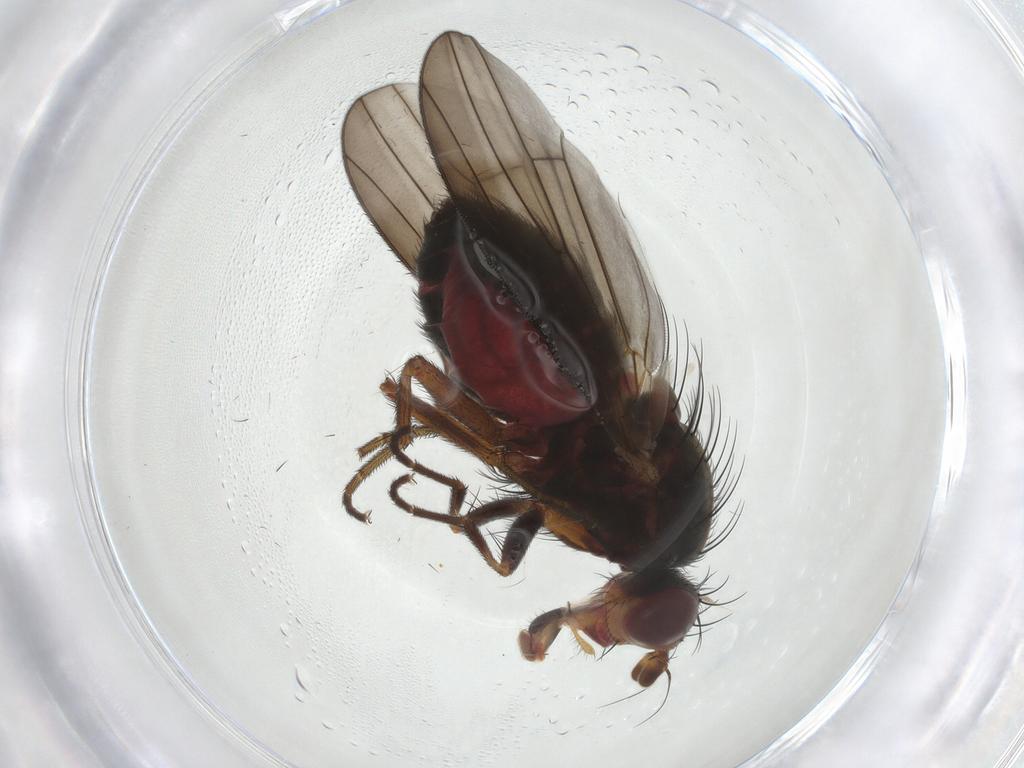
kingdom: Animalia
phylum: Arthropoda
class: Insecta
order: Diptera
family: Heleomyzidae
